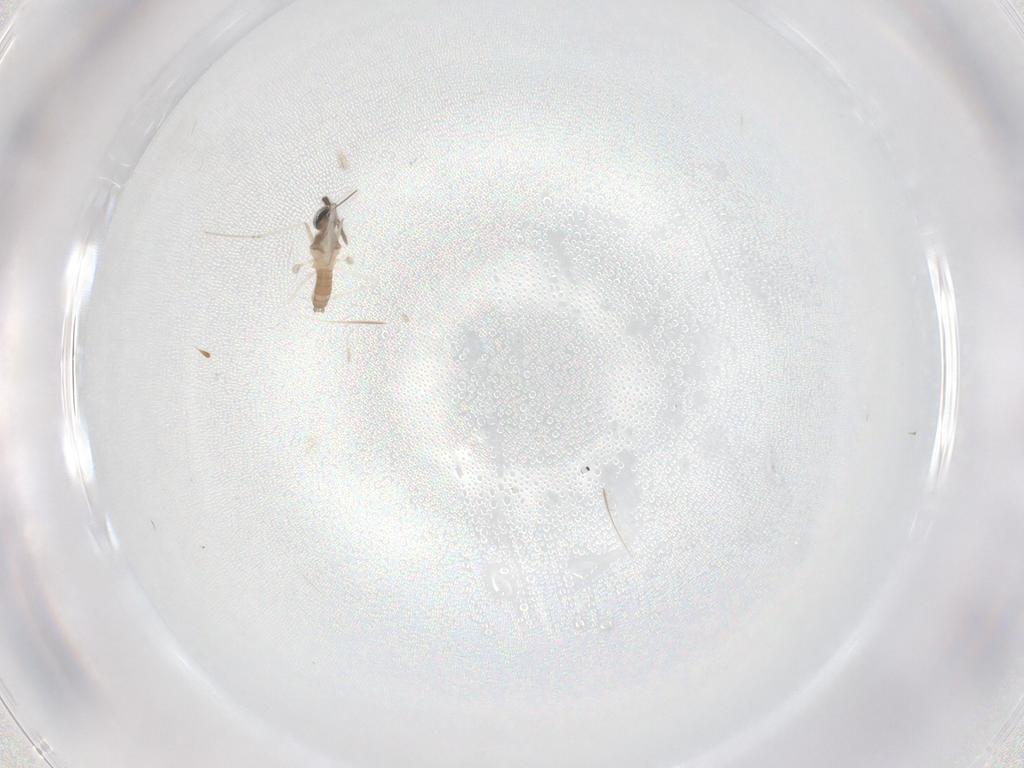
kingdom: Animalia
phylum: Arthropoda
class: Insecta
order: Diptera
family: Sciaridae
